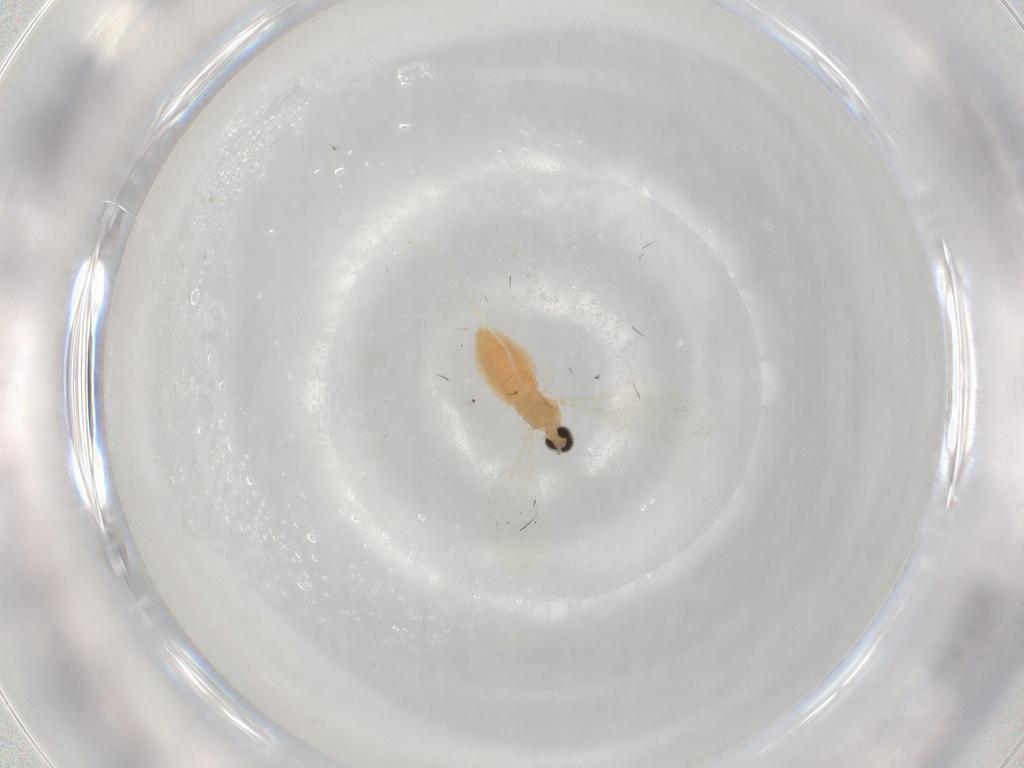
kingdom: Animalia
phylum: Arthropoda
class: Insecta
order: Diptera
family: Cecidomyiidae
